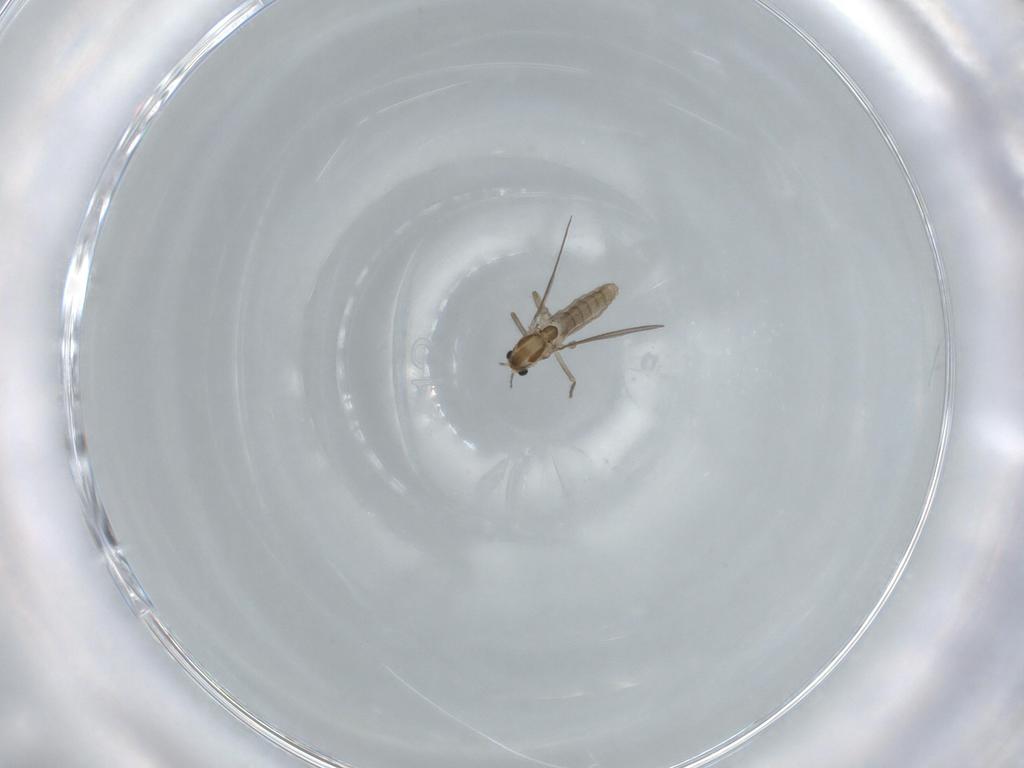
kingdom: Animalia
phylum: Arthropoda
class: Insecta
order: Diptera
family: Chironomidae
